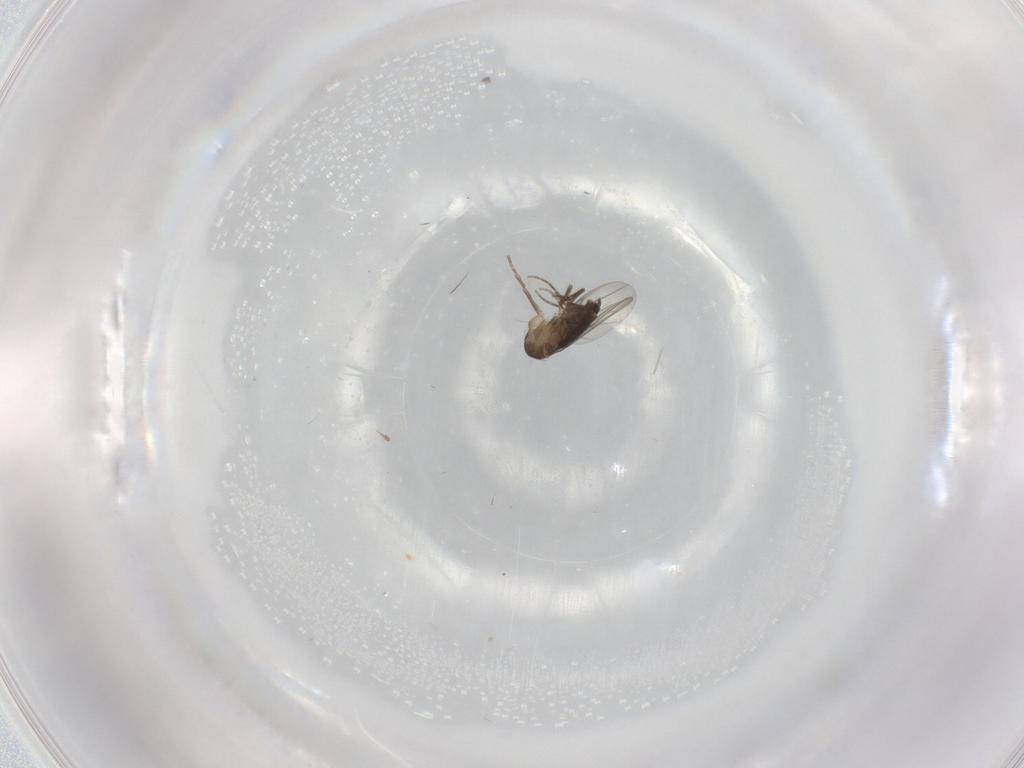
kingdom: Animalia
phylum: Arthropoda
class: Insecta
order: Diptera
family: Phoridae
